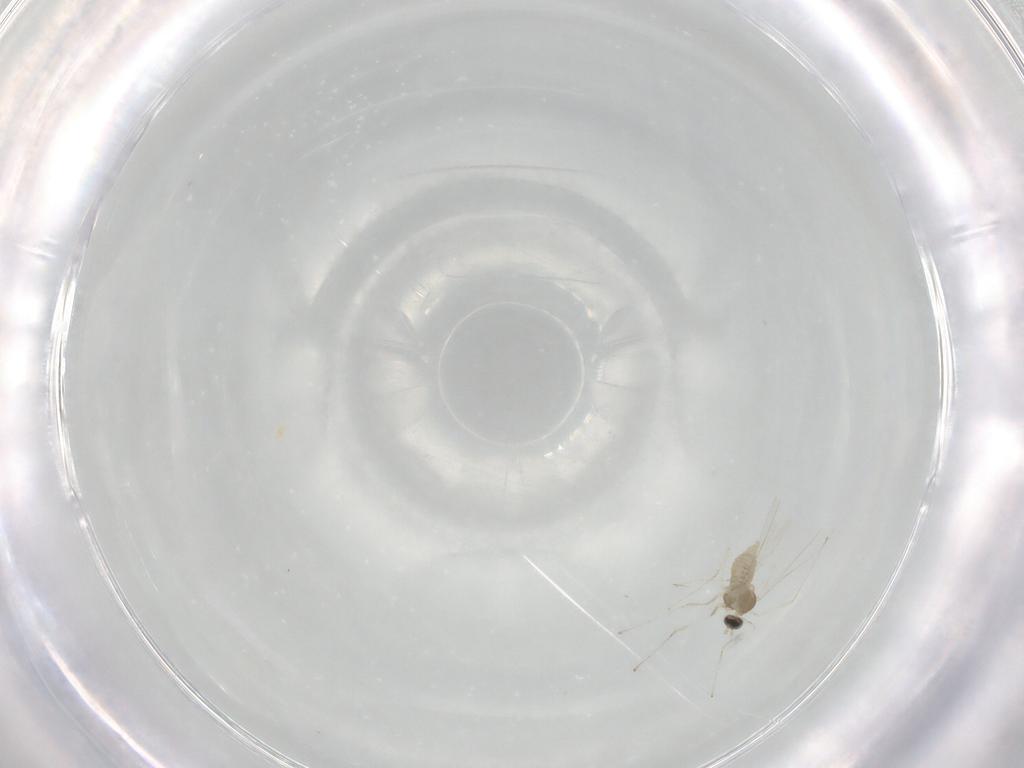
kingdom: Animalia
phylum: Arthropoda
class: Insecta
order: Diptera
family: Cecidomyiidae
